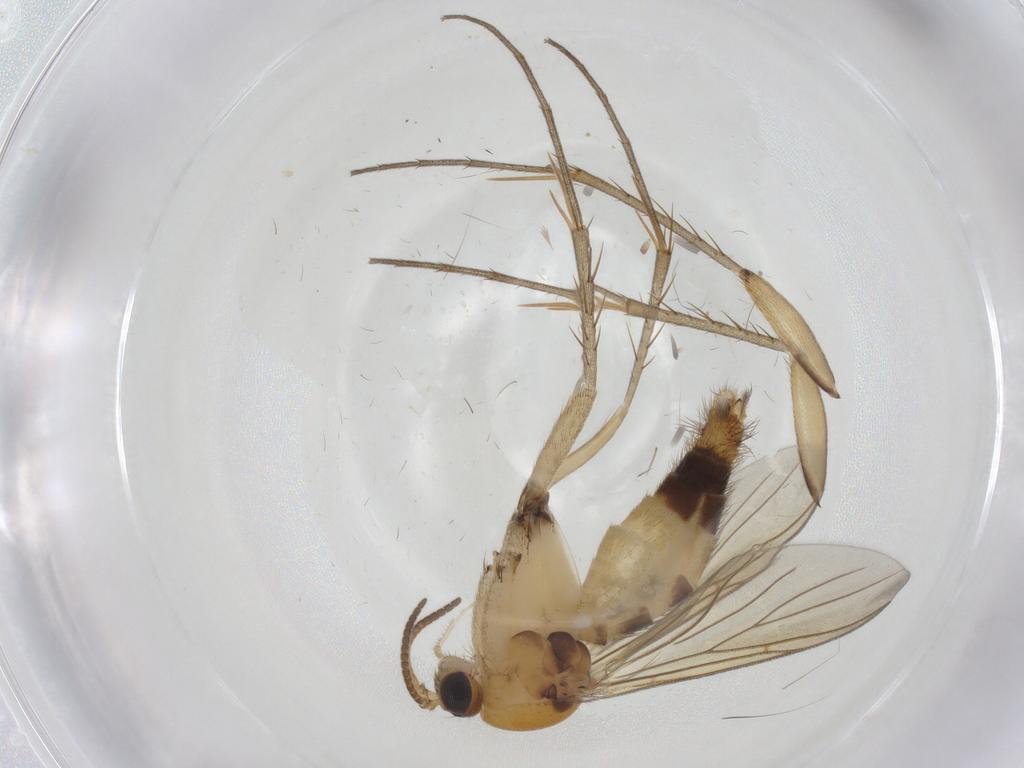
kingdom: Animalia
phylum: Arthropoda
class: Insecta
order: Diptera
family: Mycetophilidae
